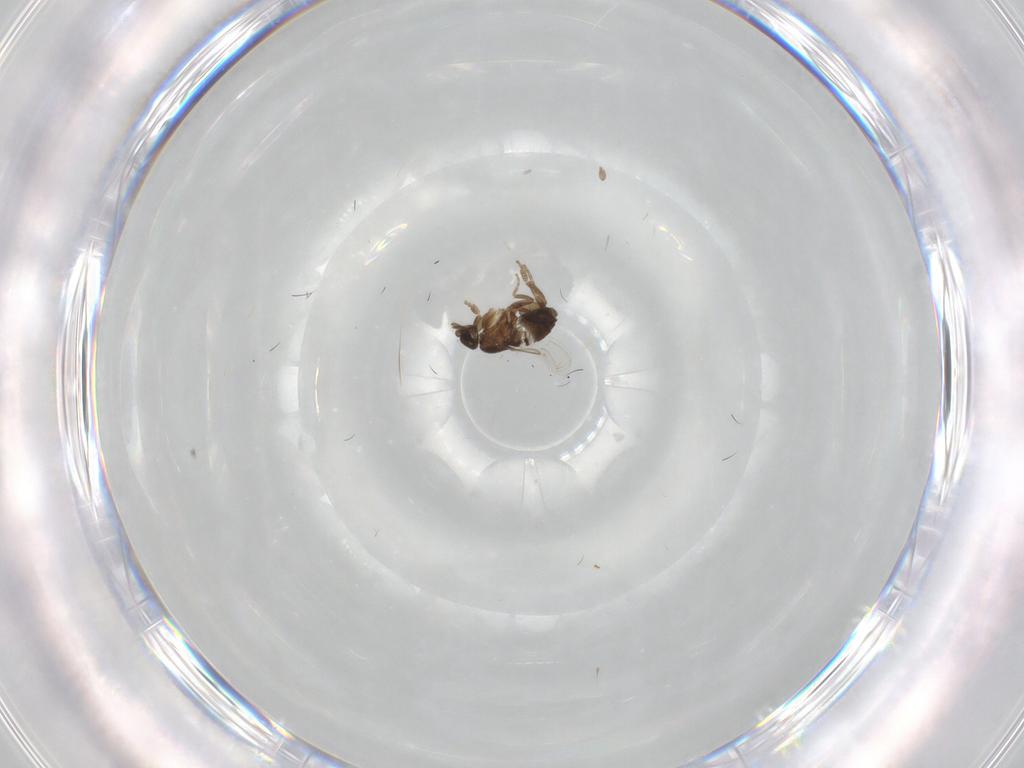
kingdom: Animalia
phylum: Arthropoda
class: Insecta
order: Diptera
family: Phoridae
